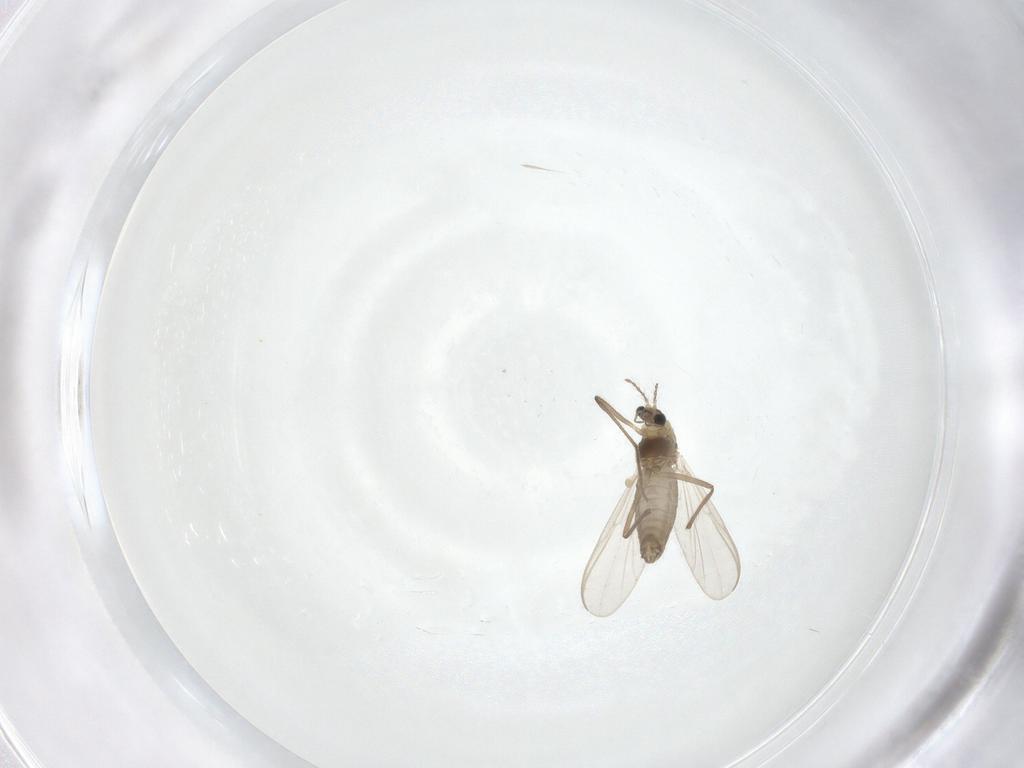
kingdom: Animalia
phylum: Arthropoda
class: Insecta
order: Diptera
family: Chironomidae
